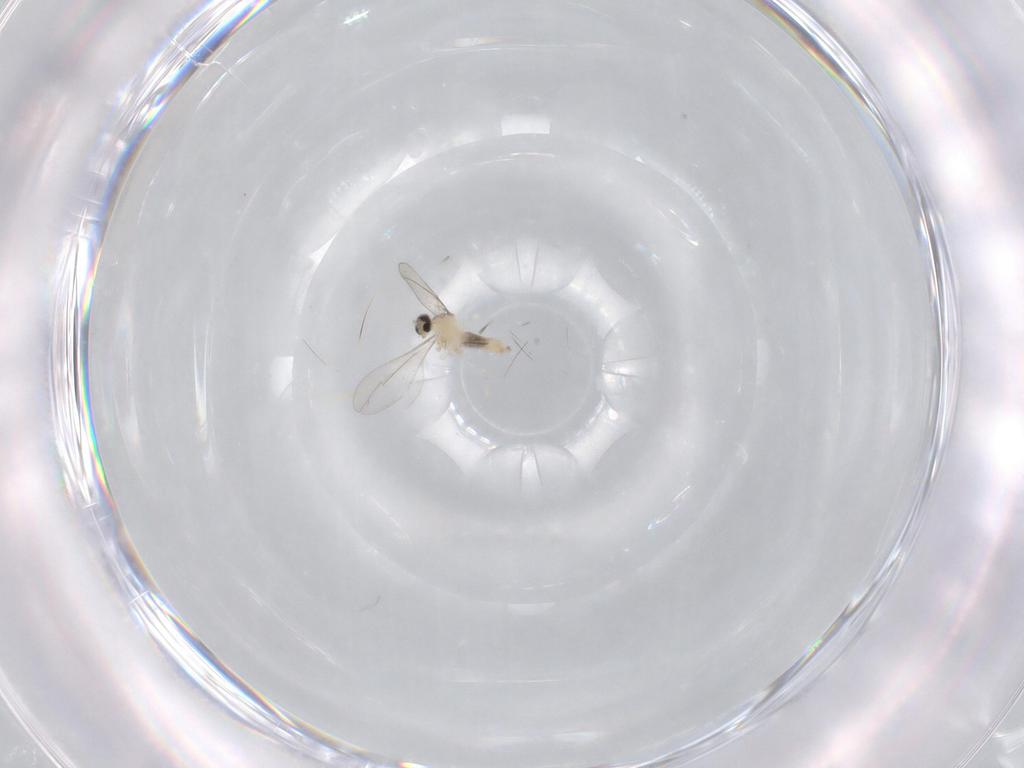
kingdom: Animalia
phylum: Arthropoda
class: Insecta
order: Diptera
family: Cecidomyiidae
